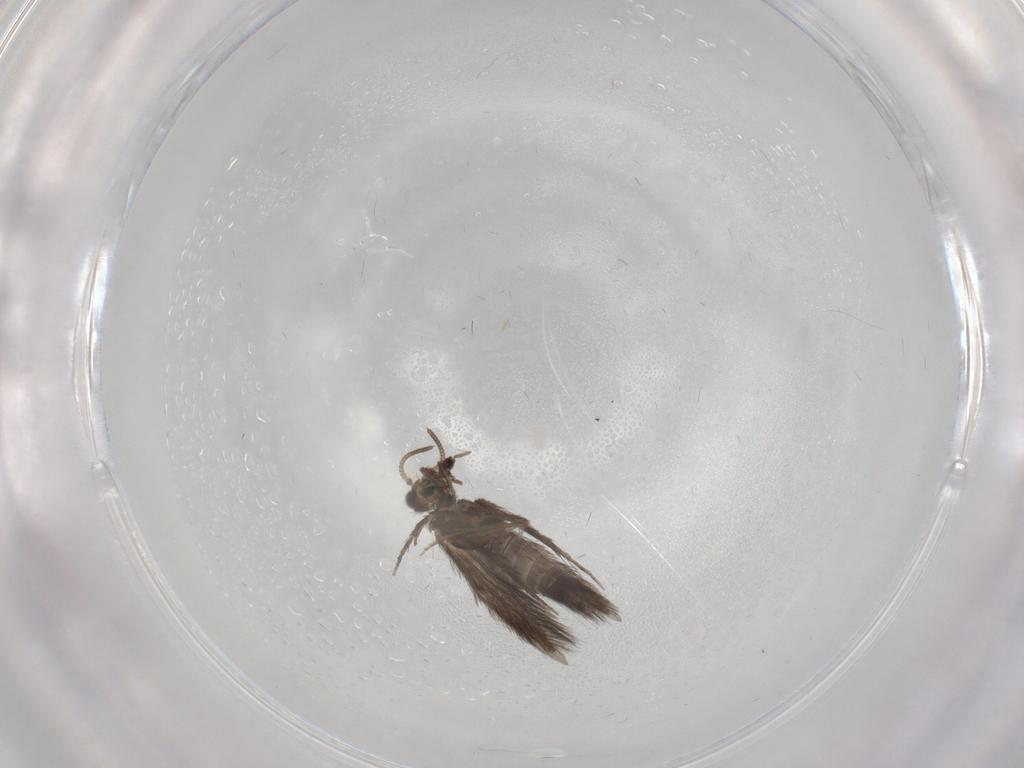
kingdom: Animalia
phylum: Arthropoda
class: Insecta
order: Trichoptera
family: Hydroptilidae
